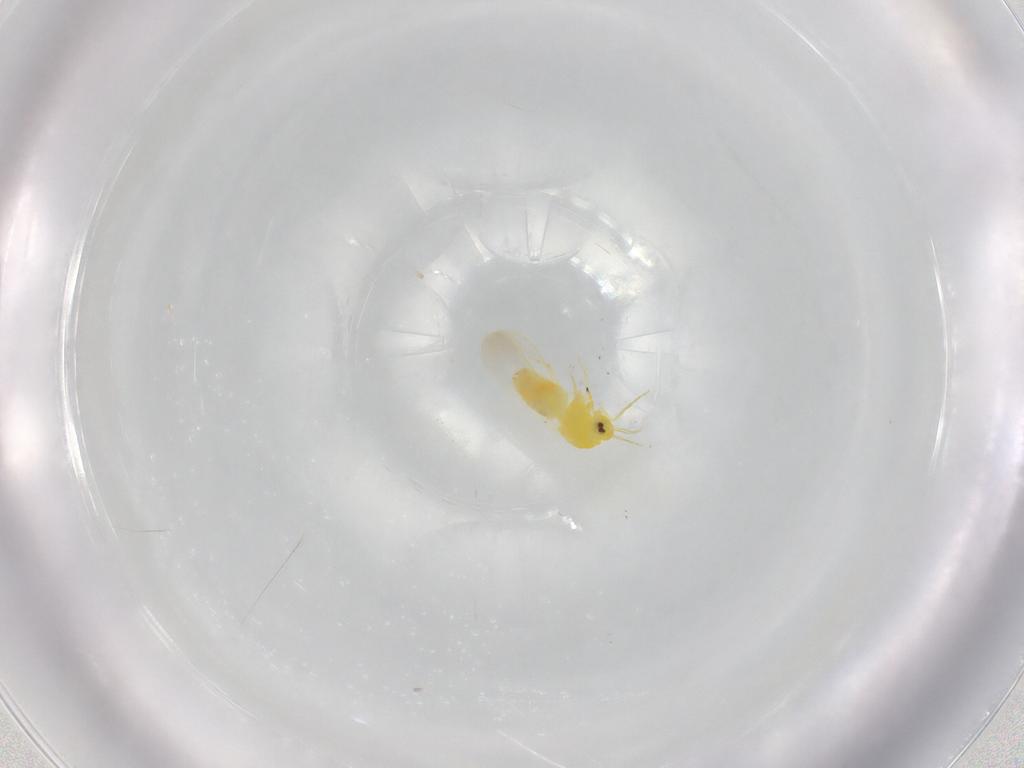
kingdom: Animalia
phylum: Arthropoda
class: Insecta
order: Hemiptera
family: Aleyrodidae
